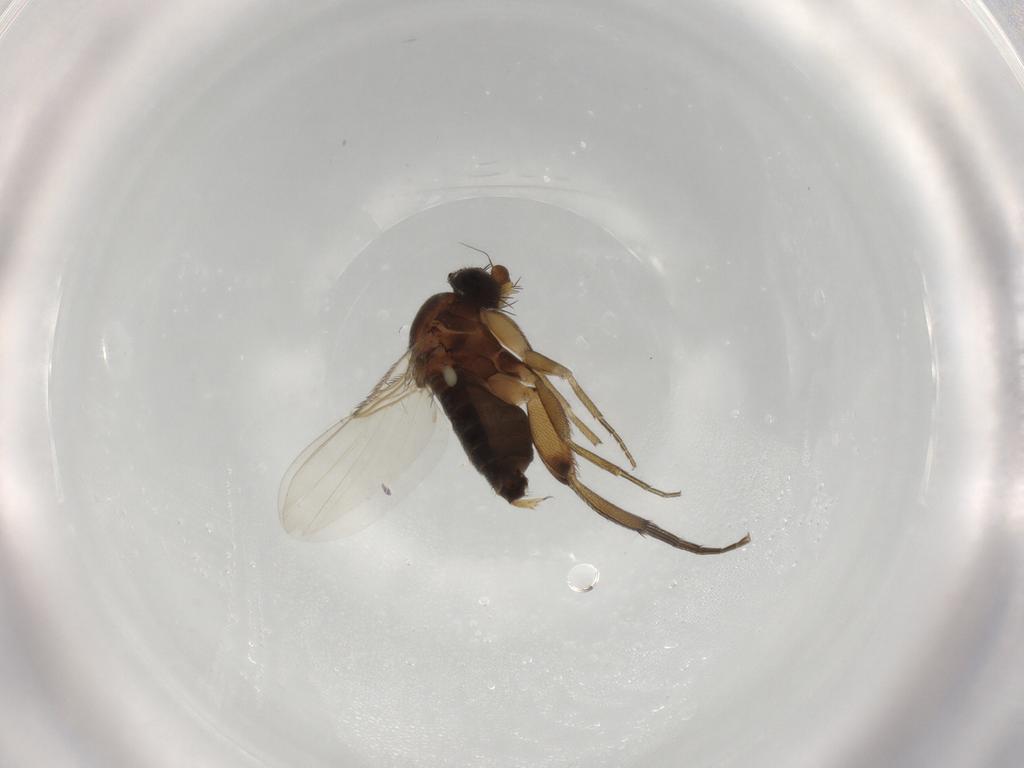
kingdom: Animalia
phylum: Arthropoda
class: Insecta
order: Diptera
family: Phoridae
